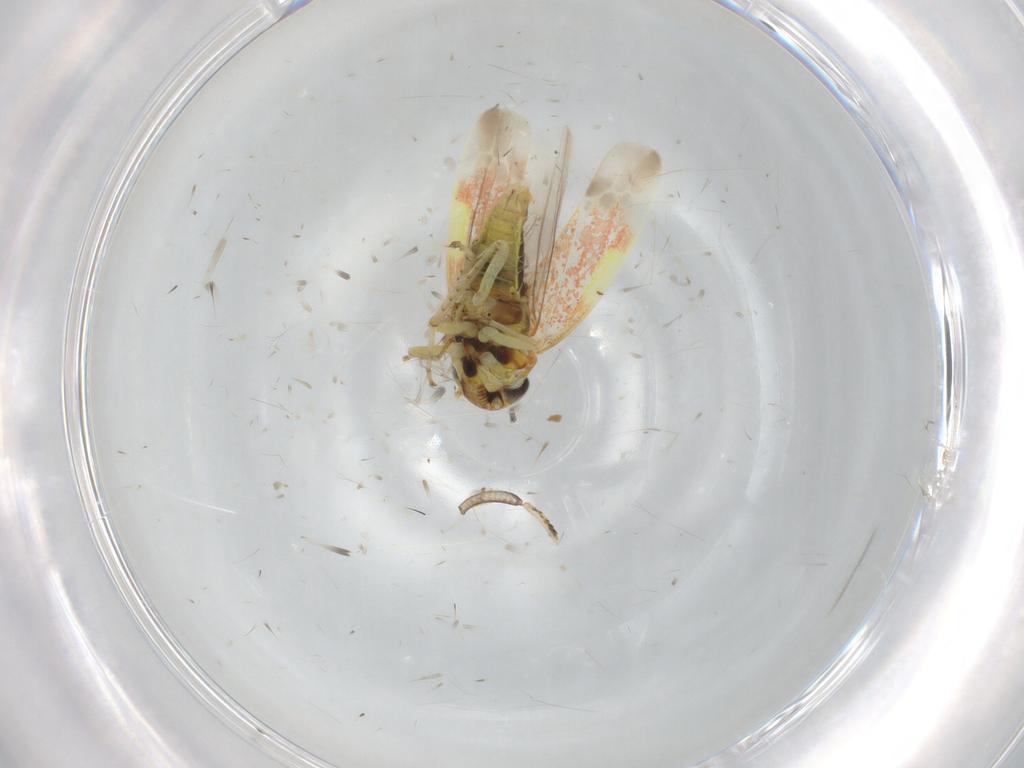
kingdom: Animalia
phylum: Arthropoda
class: Insecta
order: Hemiptera
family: Cicadellidae
